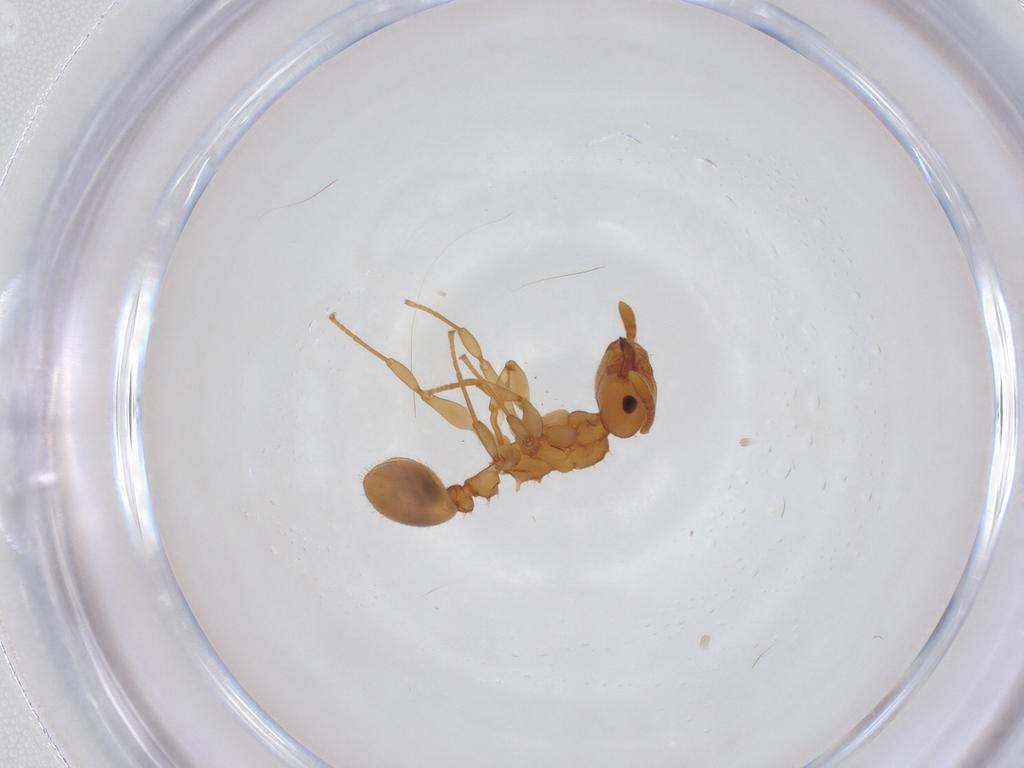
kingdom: Animalia
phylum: Arthropoda
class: Insecta
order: Hymenoptera
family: Formicidae
